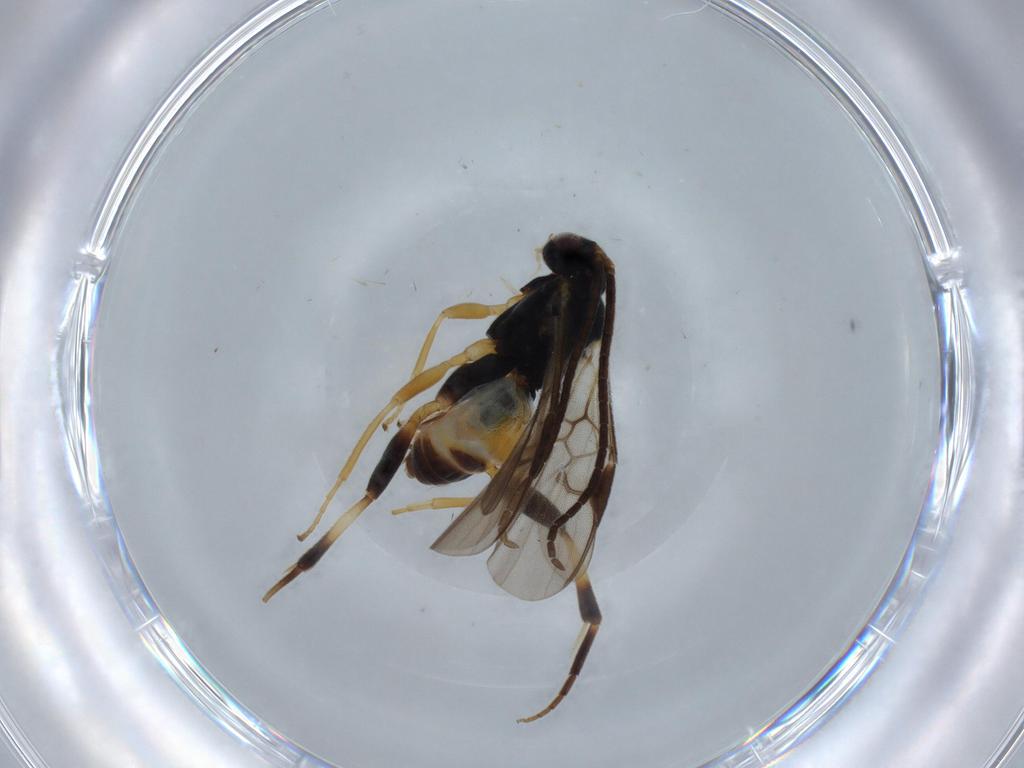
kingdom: Animalia
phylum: Arthropoda
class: Insecta
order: Hymenoptera
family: Braconidae
